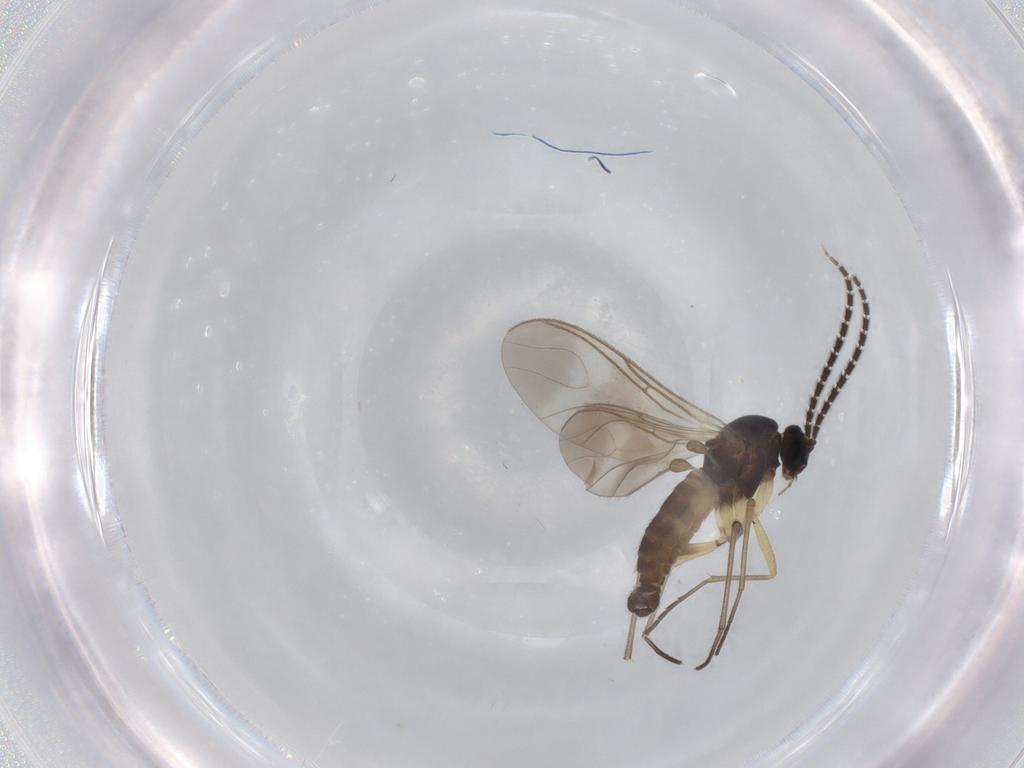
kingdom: Animalia
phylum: Arthropoda
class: Insecta
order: Diptera
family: Sciaridae
